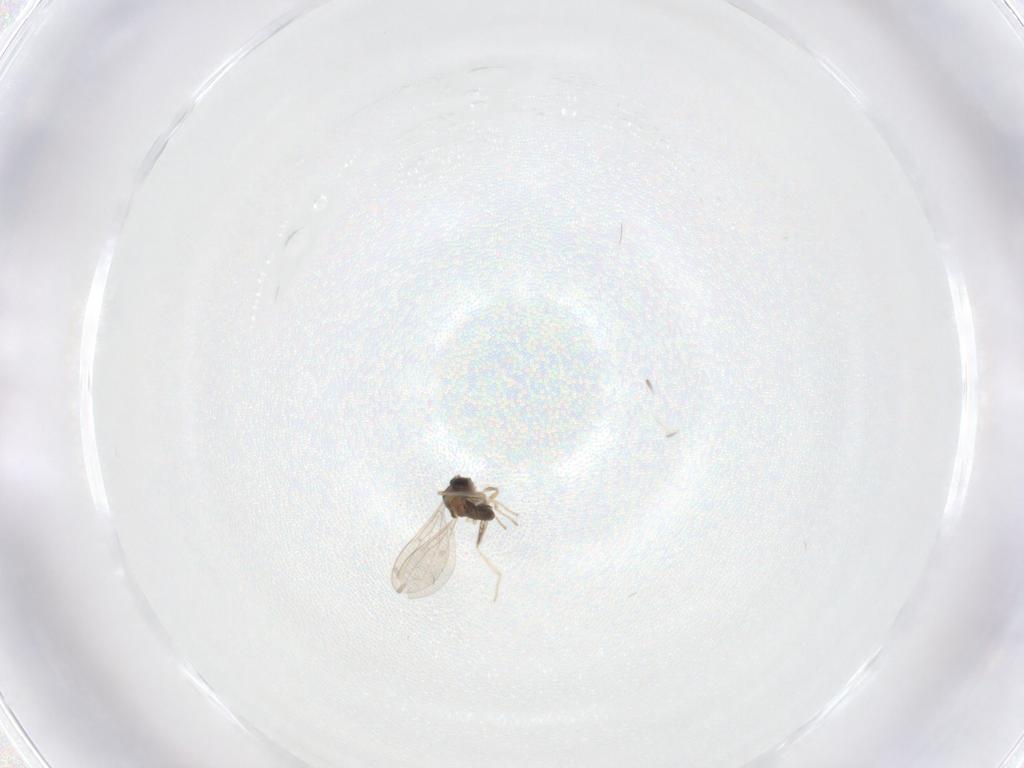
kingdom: Animalia
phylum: Arthropoda
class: Insecta
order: Diptera
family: Cecidomyiidae
